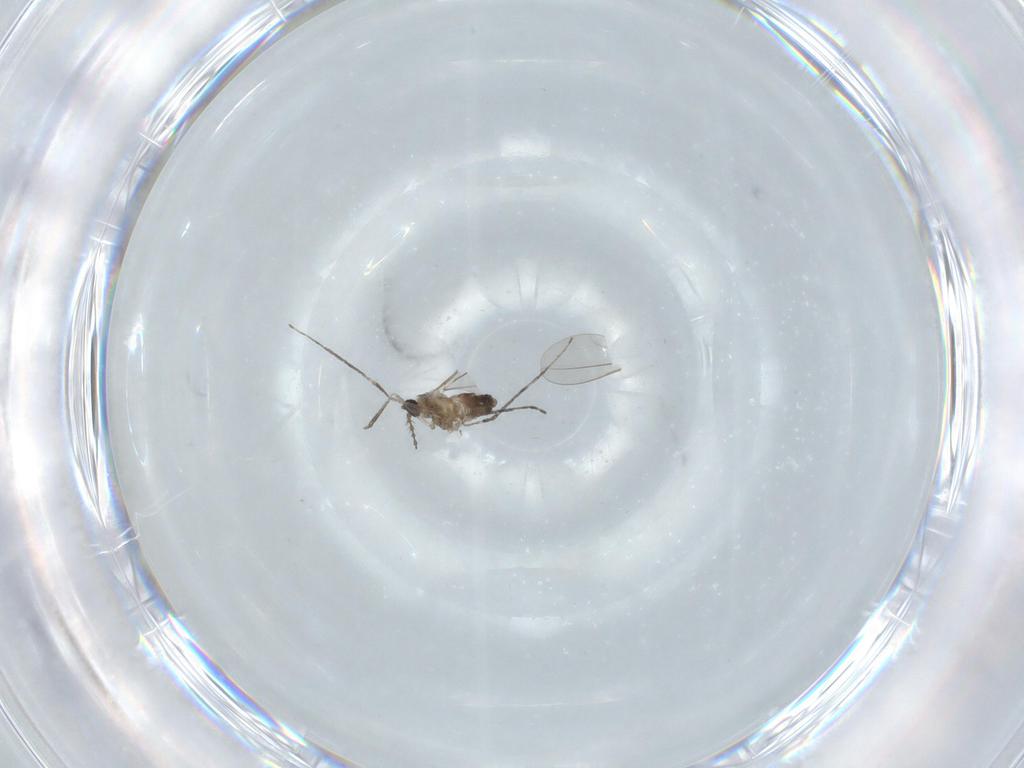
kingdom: Animalia
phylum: Arthropoda
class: Insecta
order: Diptera
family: Cecidomyiidae
